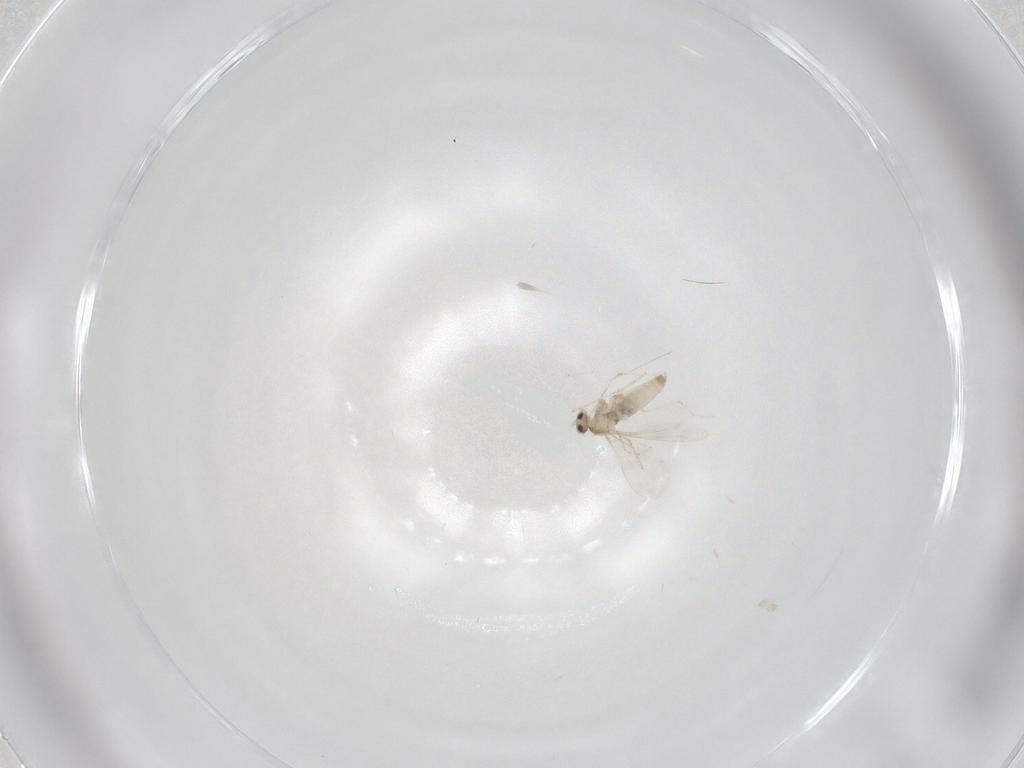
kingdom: Animalia
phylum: Arthropoda
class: Insecta
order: Diptera
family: Cecidomyiidae
